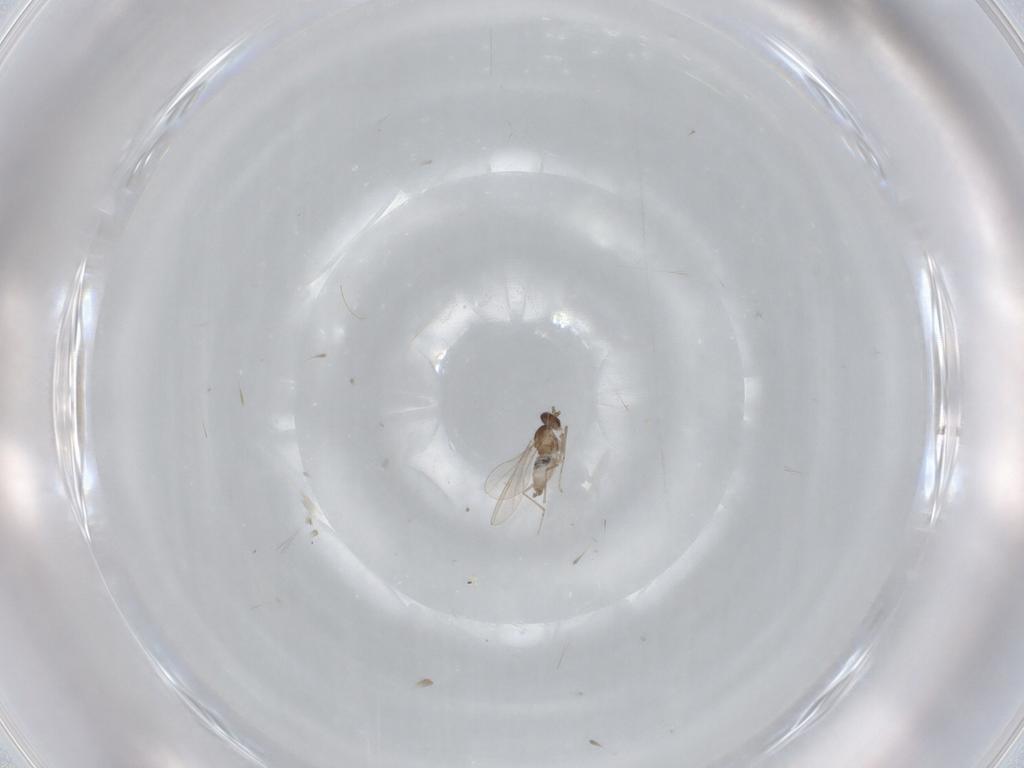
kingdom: Animalia
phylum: Arthropoda
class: Insecta
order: Diptera
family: Cecidomyiidae
